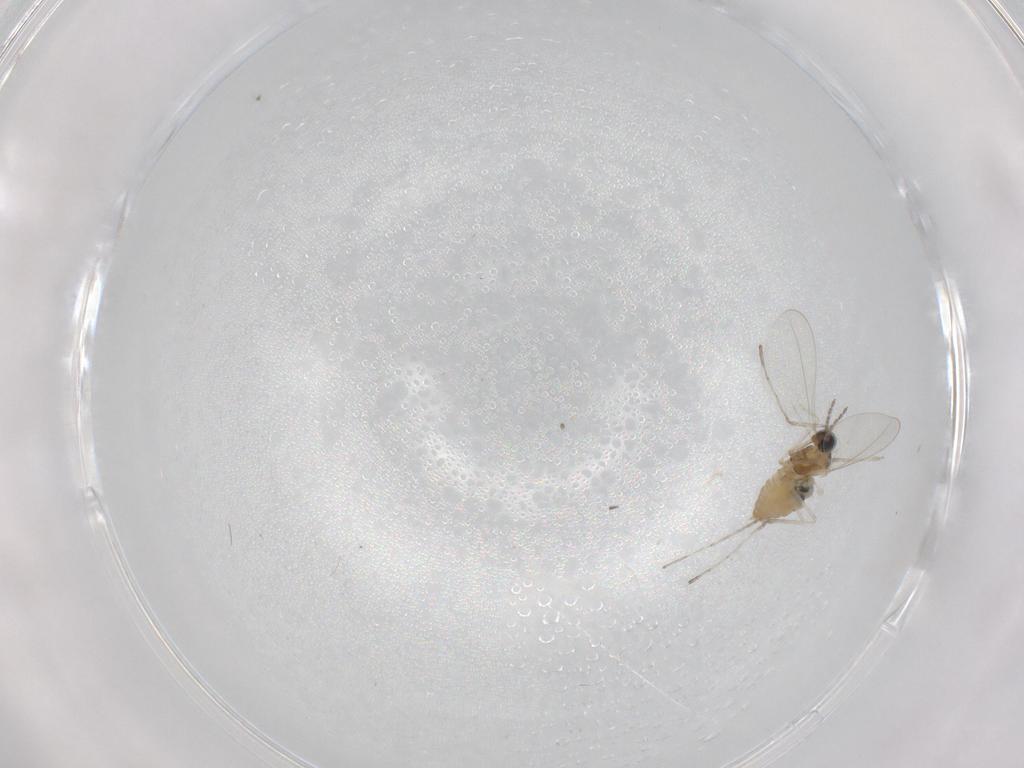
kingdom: Animalia
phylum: Arthropoda
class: Insecta
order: Diptera
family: Cecidomyiidae
